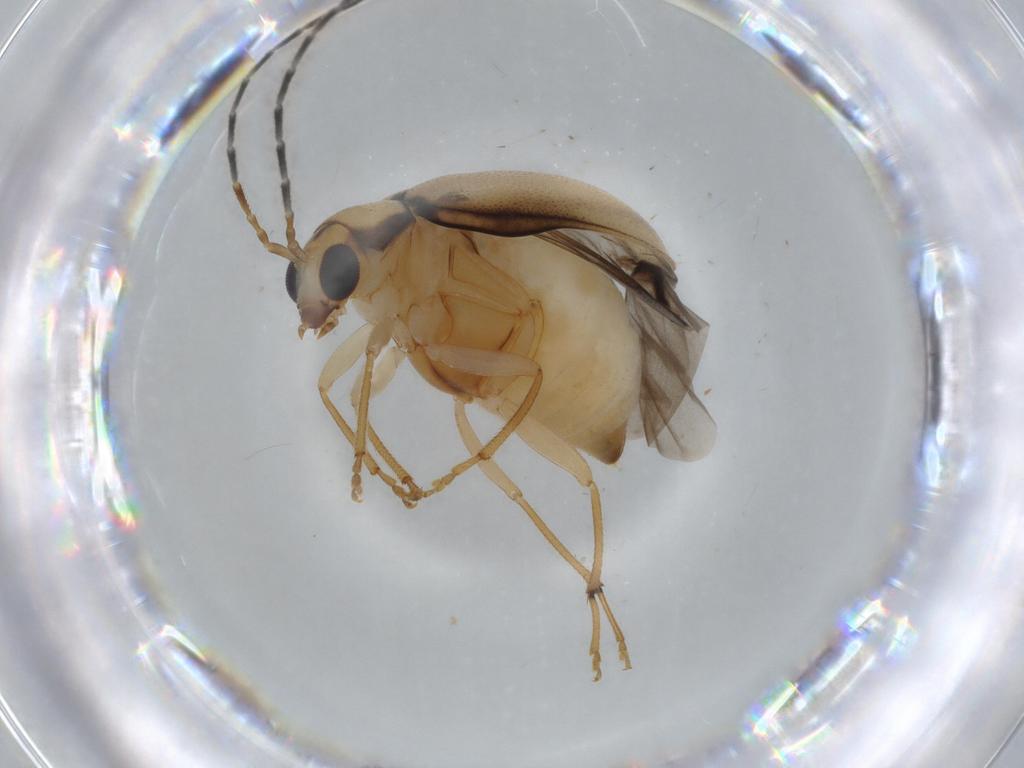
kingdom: Animalia
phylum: Arthropoda
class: Insecta
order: Coleoptera
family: Chrysomelidae
